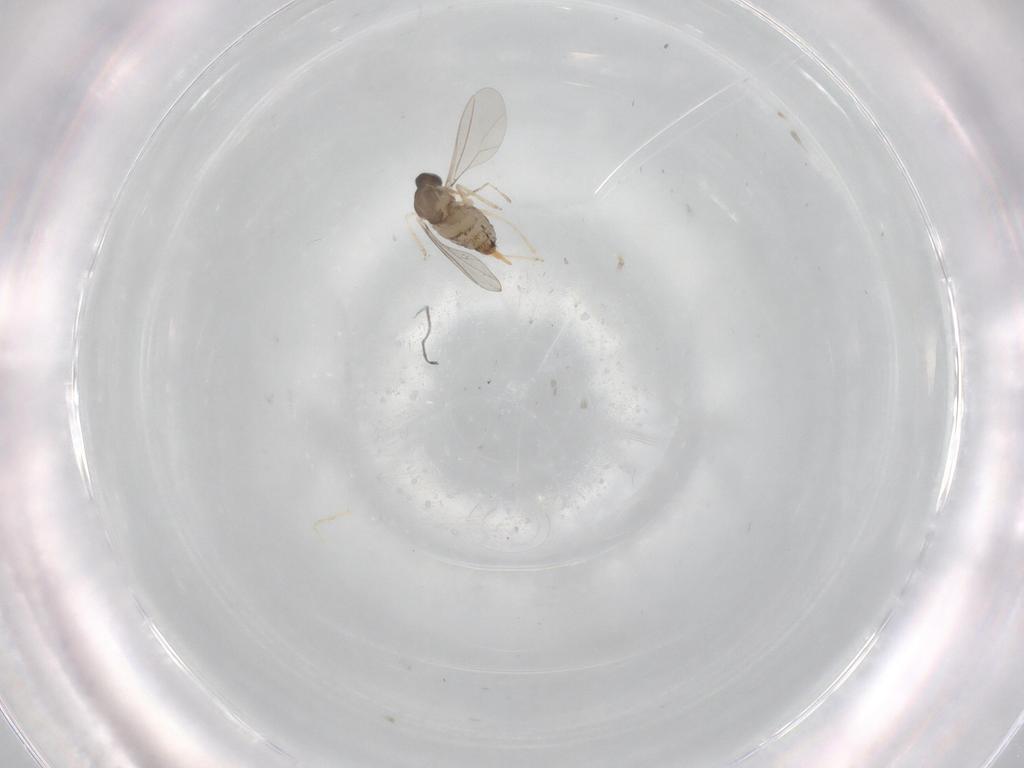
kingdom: Animalia
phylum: Arthropoda
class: Insecta
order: Diptera
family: Cecidomyiidae
